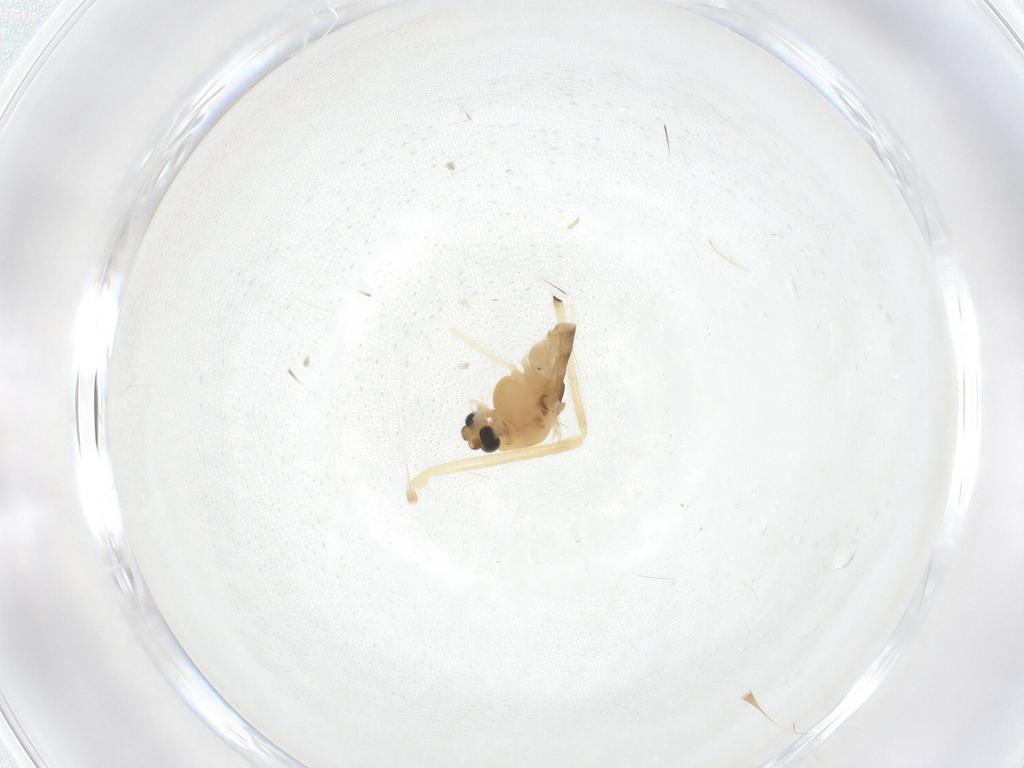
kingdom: Animalia
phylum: Arthropoda
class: Insecta
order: Diptera
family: Chironomidae
